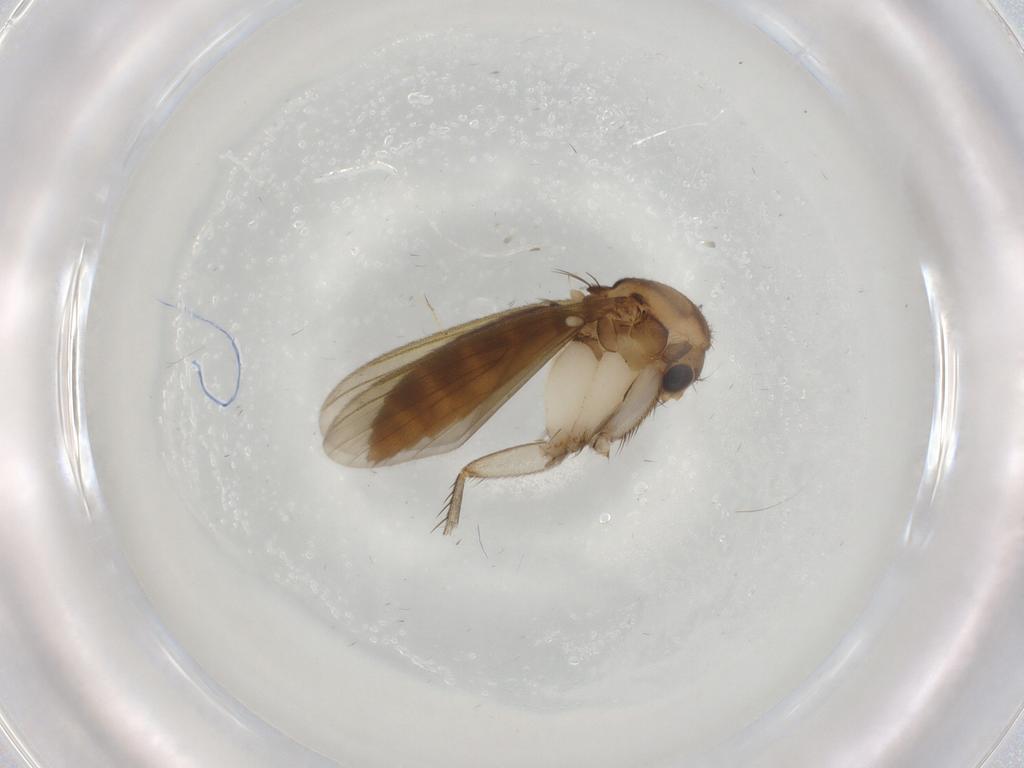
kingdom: Animalia
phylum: Arthropoda
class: Insecta
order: Diptera
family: Mycetophilidae
